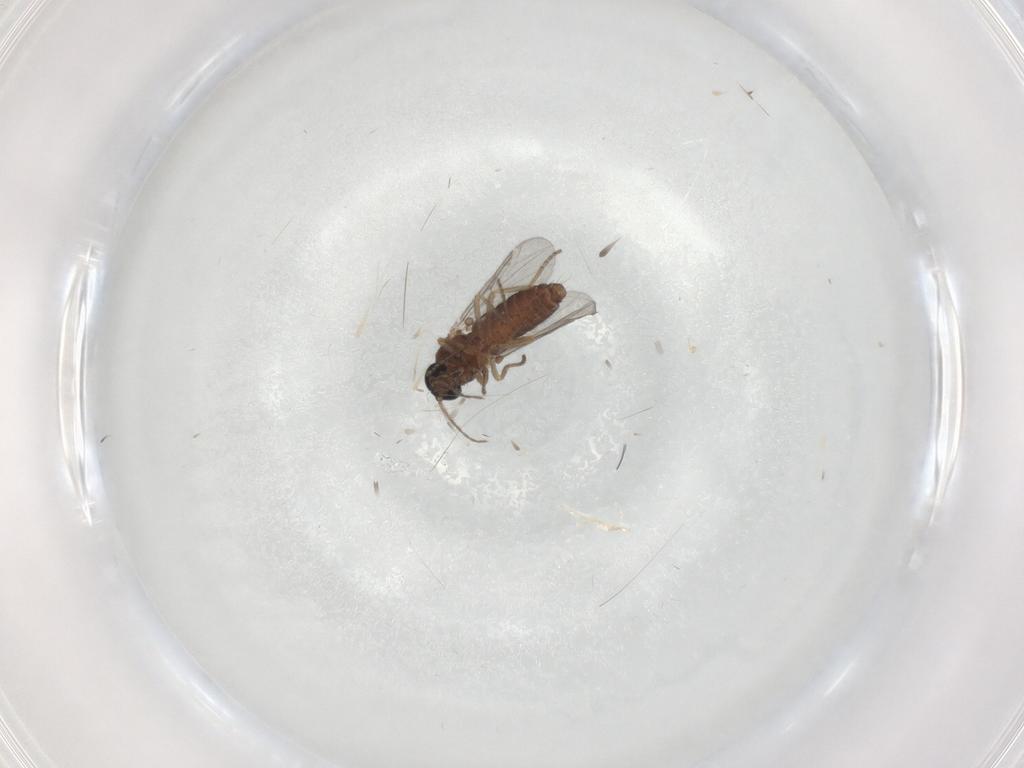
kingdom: Animalia
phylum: Arthropoda
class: Insecta
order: Diptera
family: Ceratopogonidae
